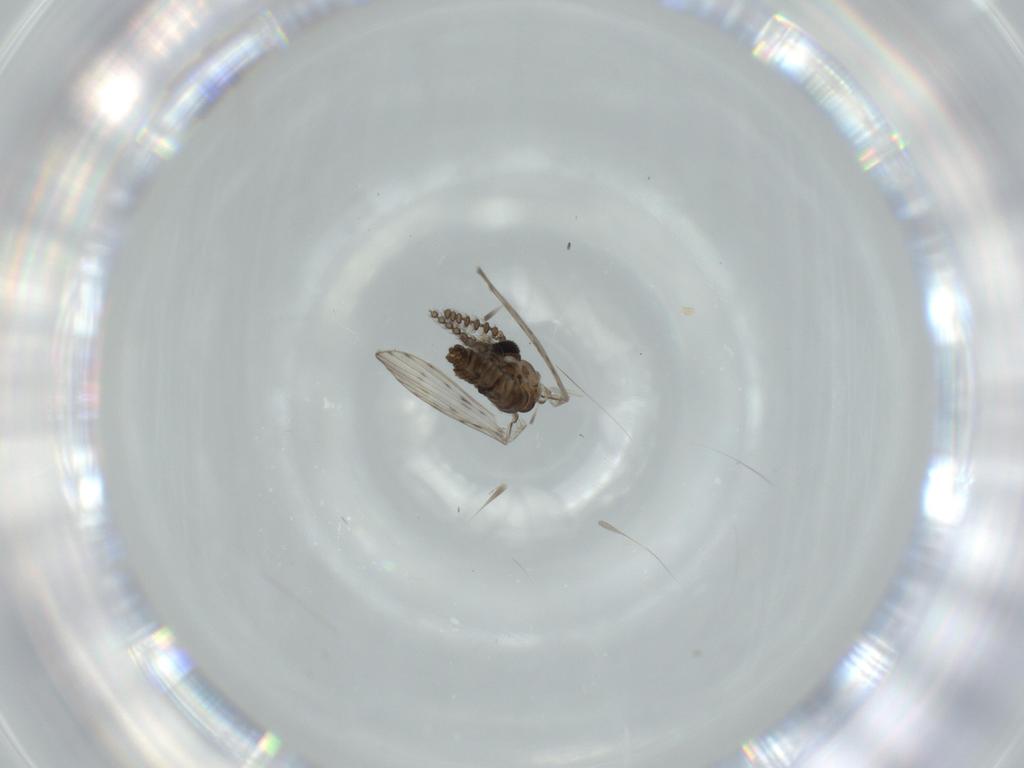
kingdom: Animalia
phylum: Arthropoda
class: Insecta
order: Diptera
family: Psychodidae
